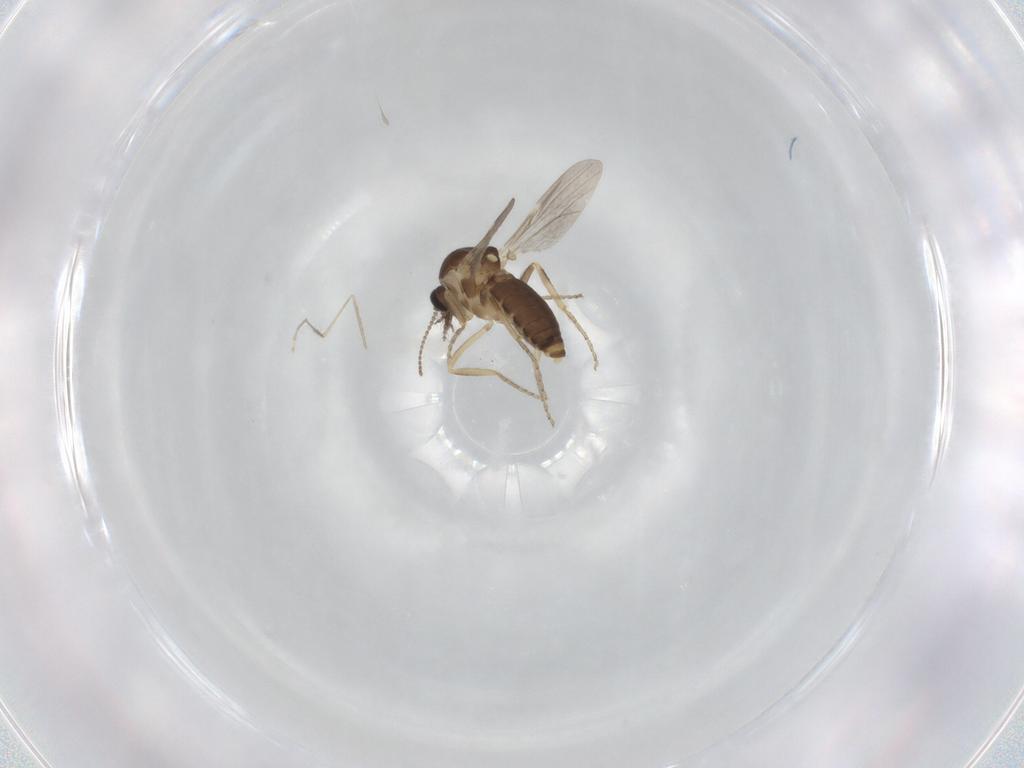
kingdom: Animalia
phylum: Arthropoda
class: Insecta
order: Diptera
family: Ceratopogonidae
